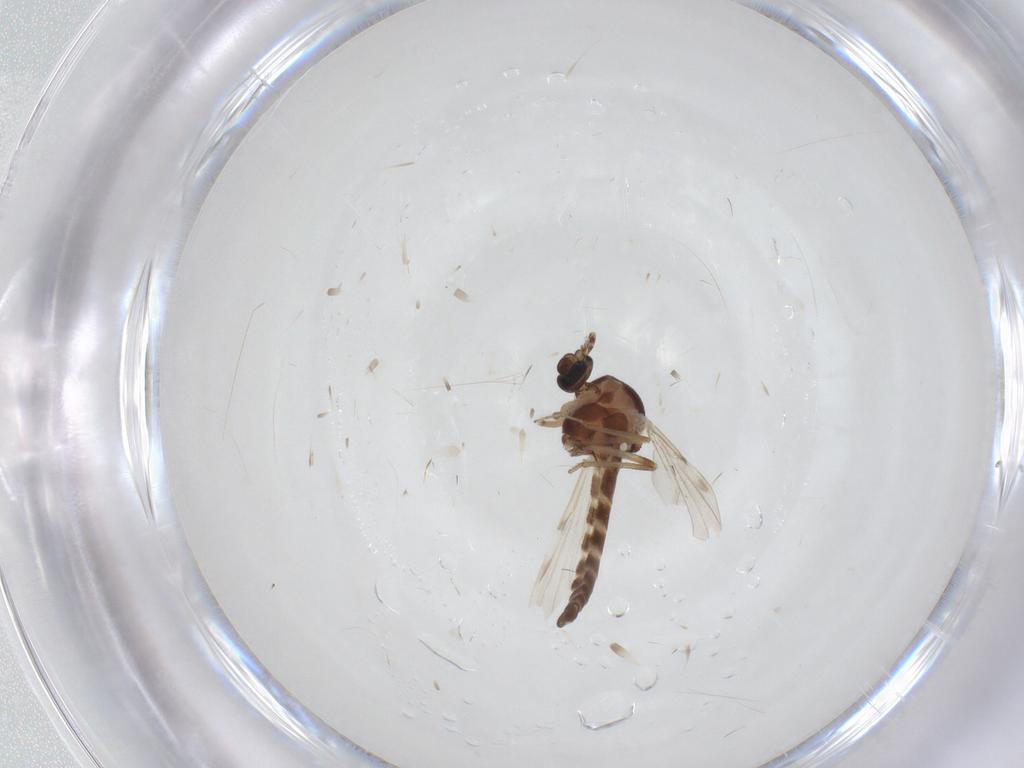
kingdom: Animalia
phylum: Arthropoda
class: Insecta
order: Diptera
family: Ceratopogonidae
